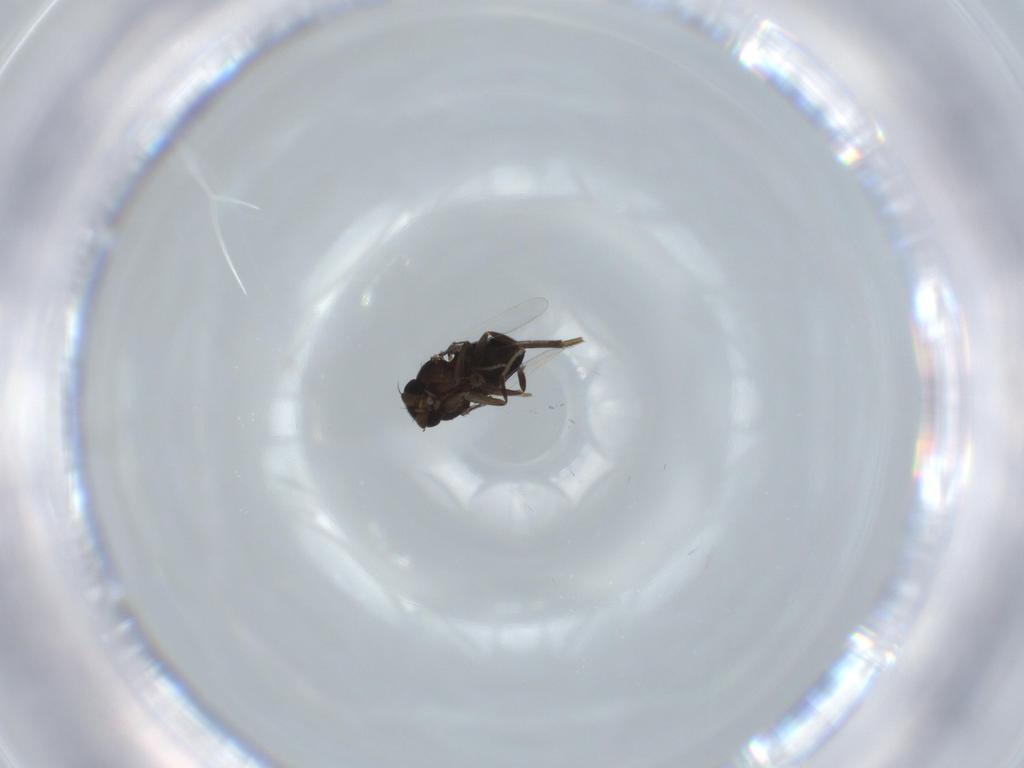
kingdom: Animalia
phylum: Arthropoda
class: Insecta
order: Diptera
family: Phoridae
